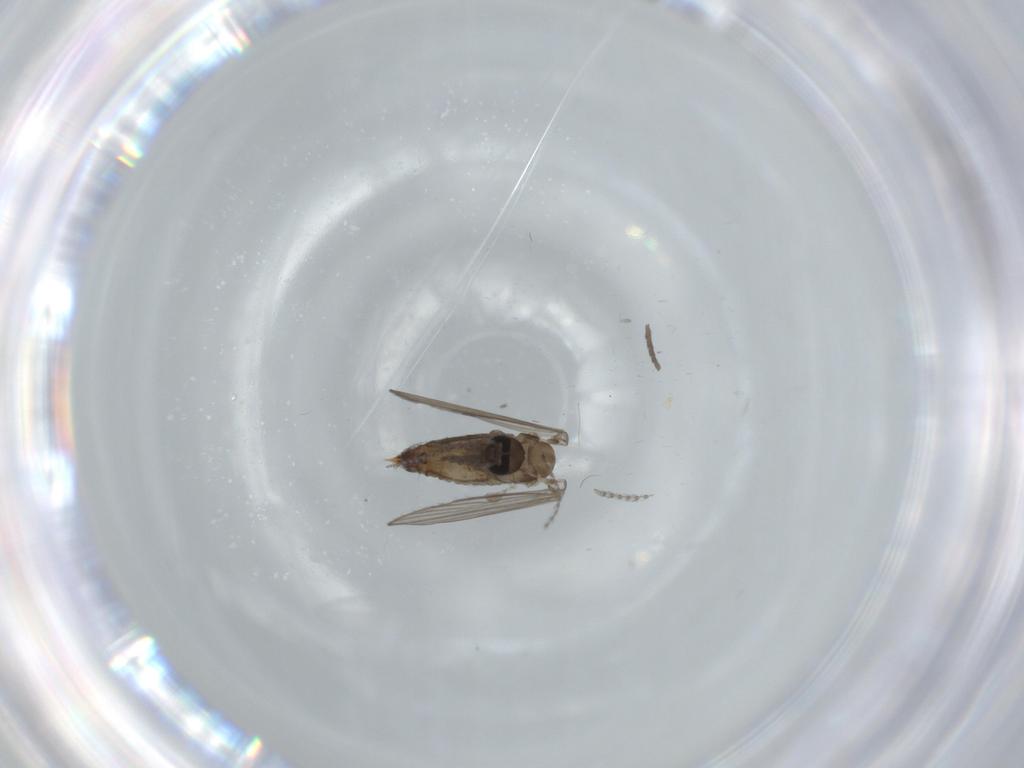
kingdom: Animalia
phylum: Arthropoda
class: Insecta
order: Diptera
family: Psychodidae
